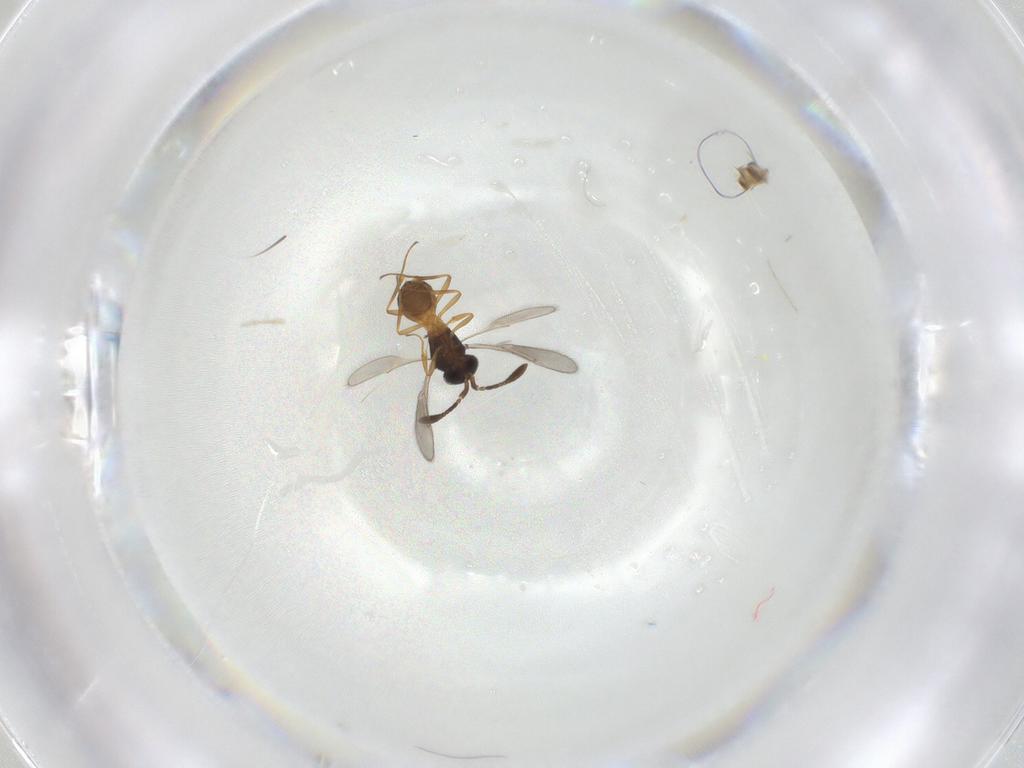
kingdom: Animalia
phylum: Arthropoda
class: Insecta
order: Hymenoptera
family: Scelionidae
